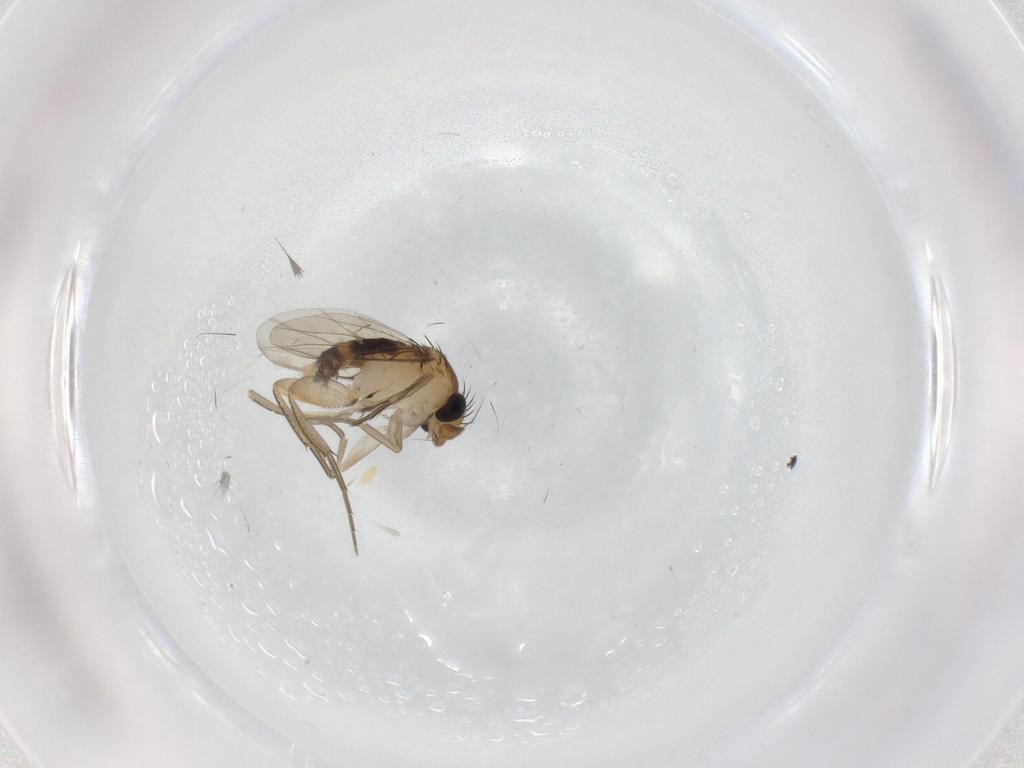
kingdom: Animalia
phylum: Arthropoda
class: Insecta
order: Diptera
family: Phoridae
